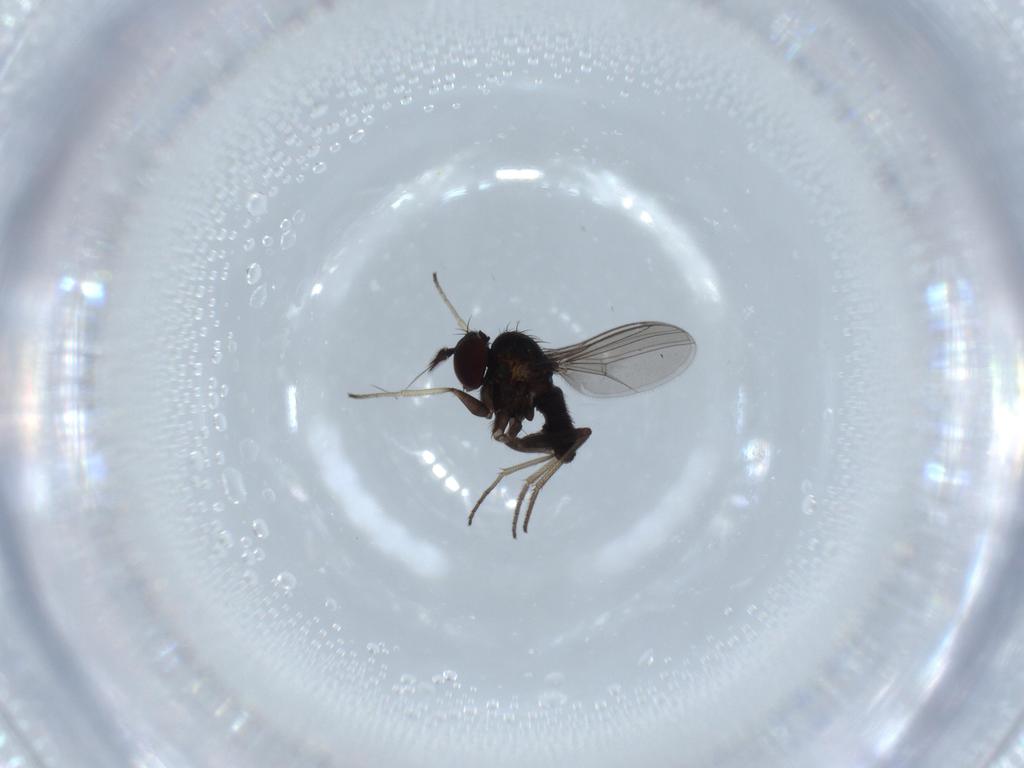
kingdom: Animalia
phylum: Arthropoda
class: Insecta
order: Diptera
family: Dolichopodidae
